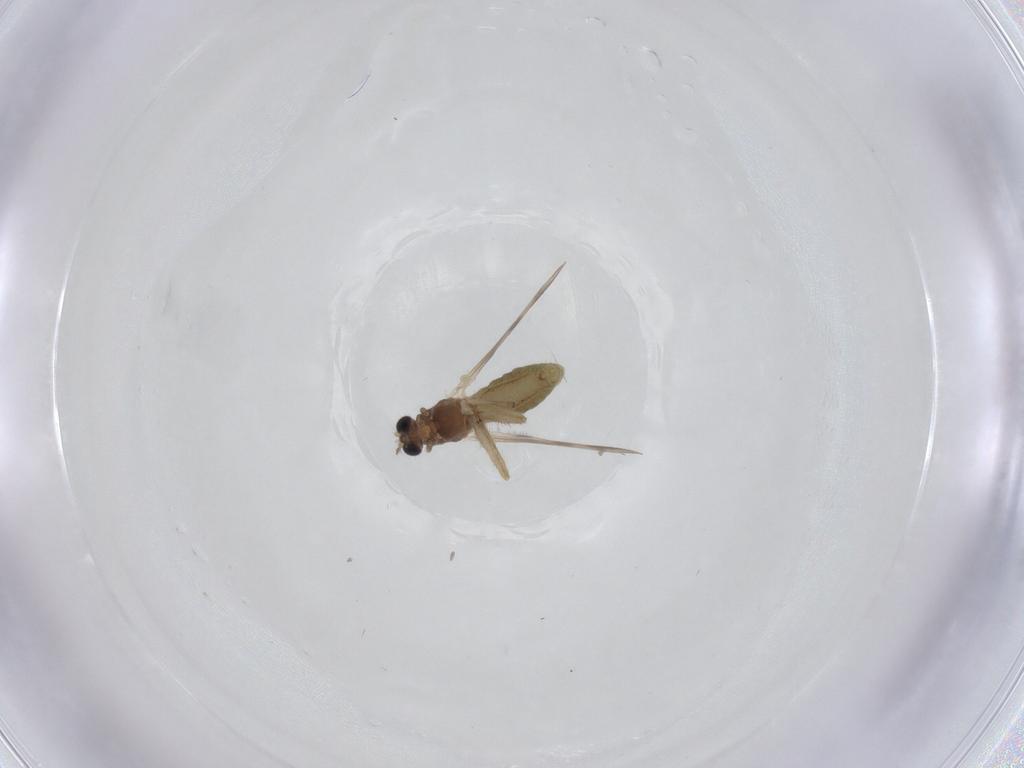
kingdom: Animalia
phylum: Arthropoda
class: Insecta
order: Diptera
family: Chironomidae
